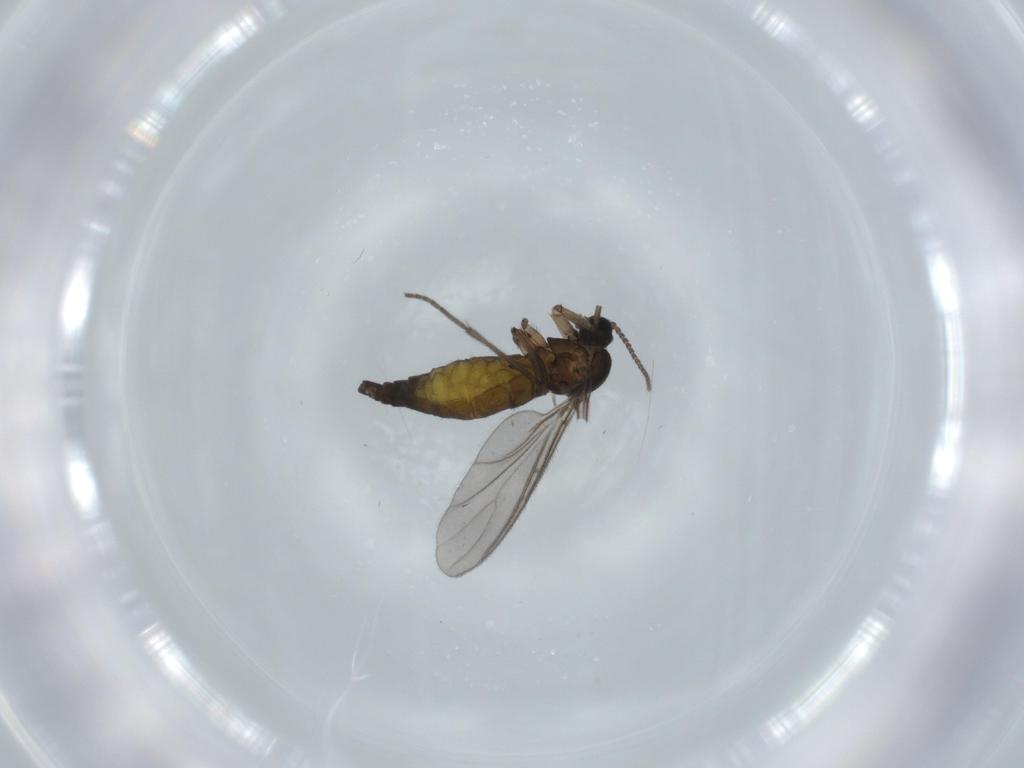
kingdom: Animalia
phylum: Arthropoda
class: Insecta
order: Diptera
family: Sciaridae
